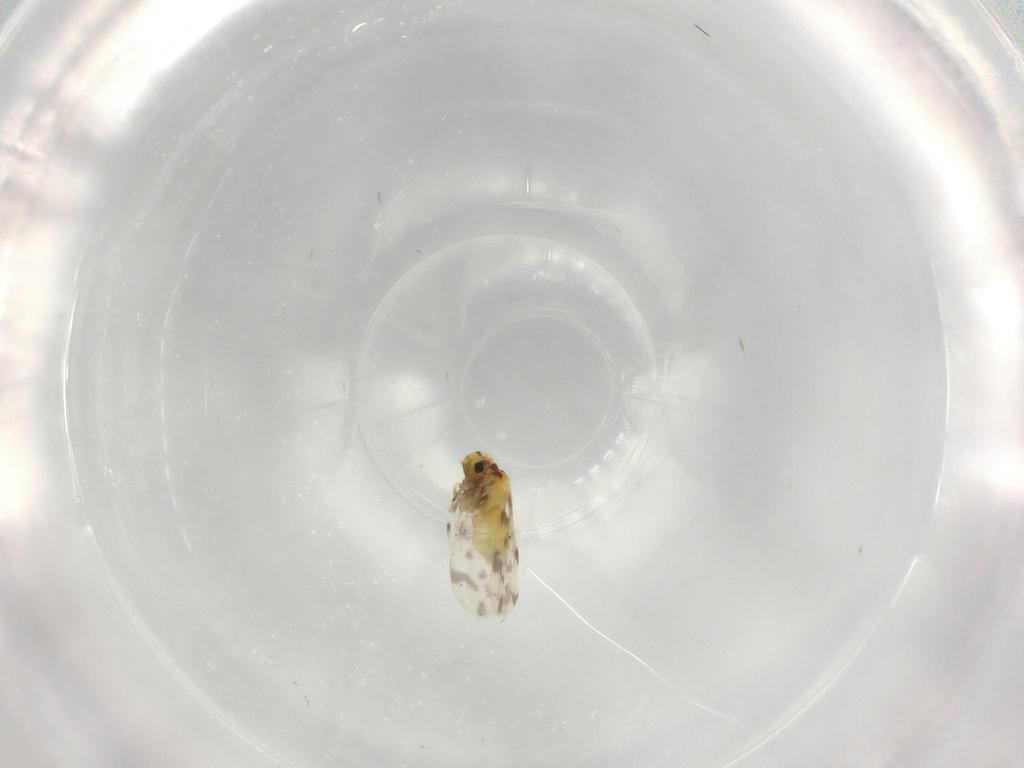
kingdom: Animalia
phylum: Arthropoda
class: Insecta
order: Hemiptera
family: Aleyrodidae
